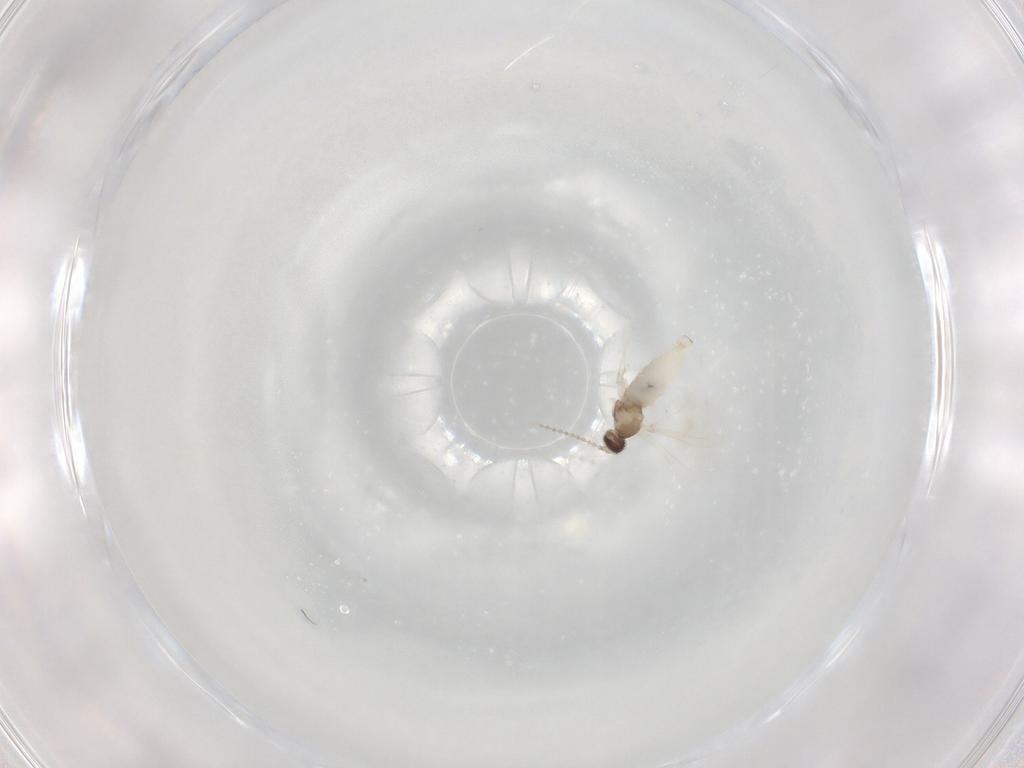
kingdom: Animalia
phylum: Arthropoda
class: Insecta
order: Diptera
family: Cecidomyiidae
